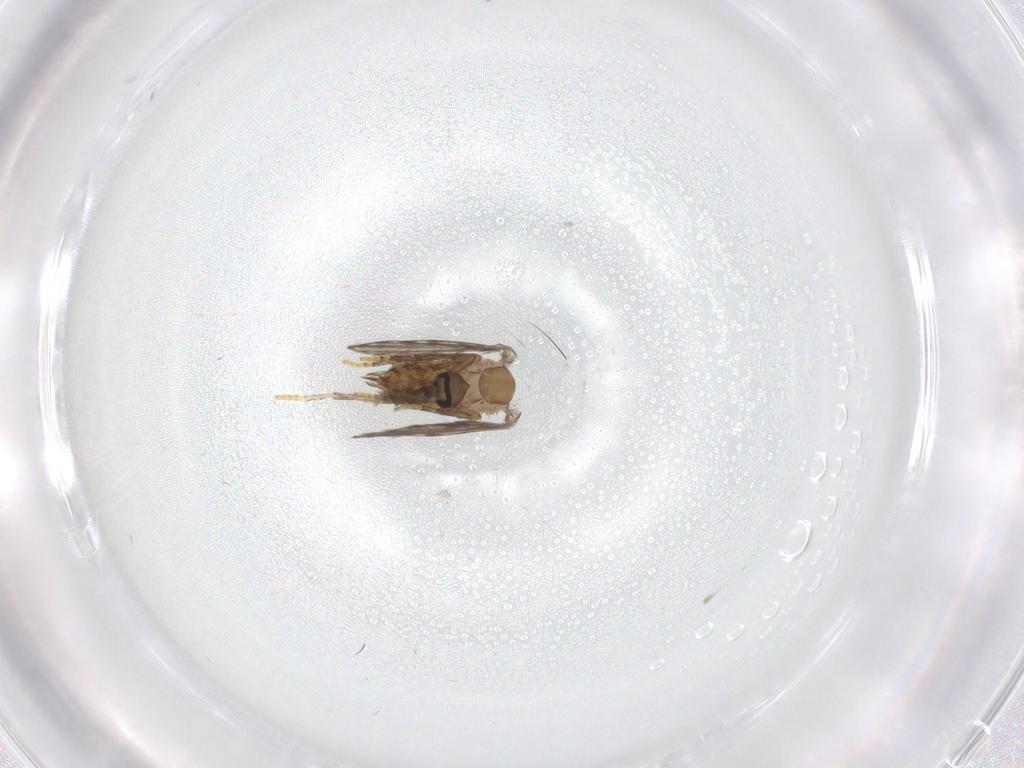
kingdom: Animalia
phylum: Arthropoda
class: Insecta
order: Diptera
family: Psychodidae
